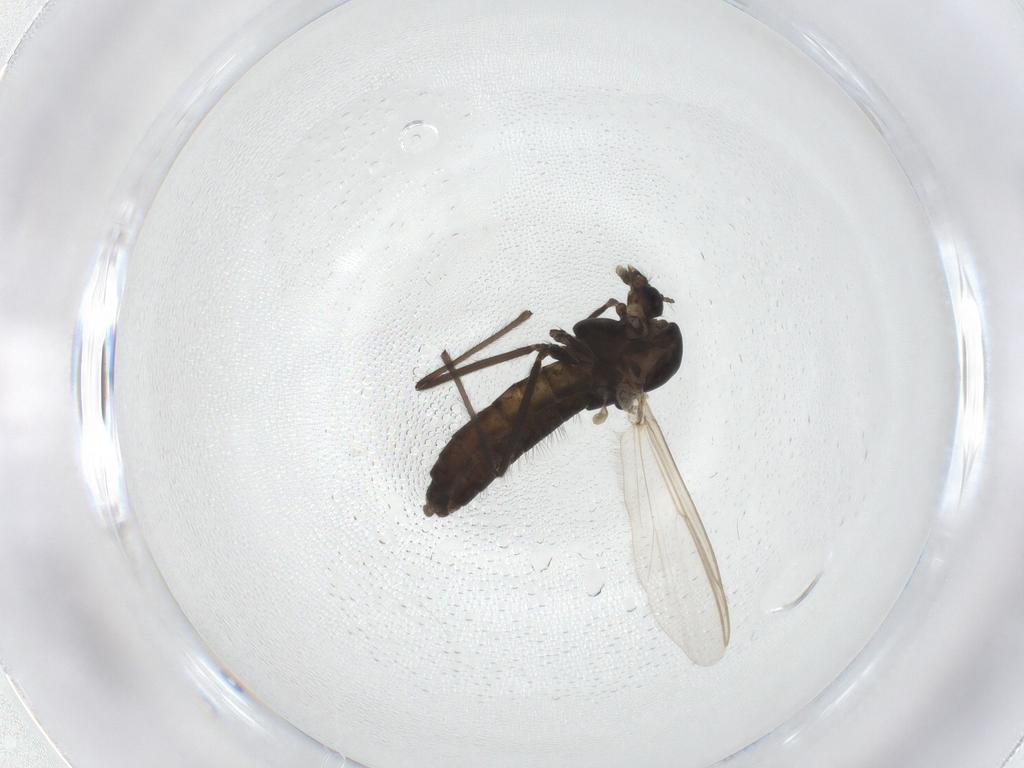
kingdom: Animalia
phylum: Arthropoda
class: Insecta
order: Diptera
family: Chironomidae
